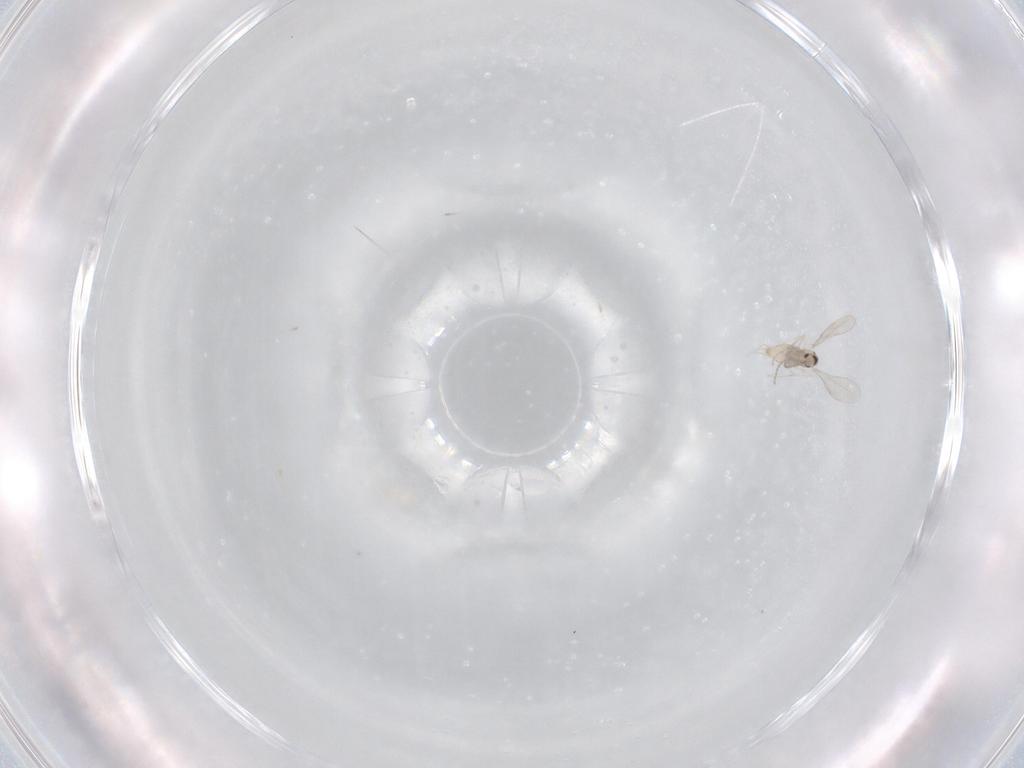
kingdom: Animalia
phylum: Arthropoda
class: Insecta
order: Diptera
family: Cecidomyiidae
